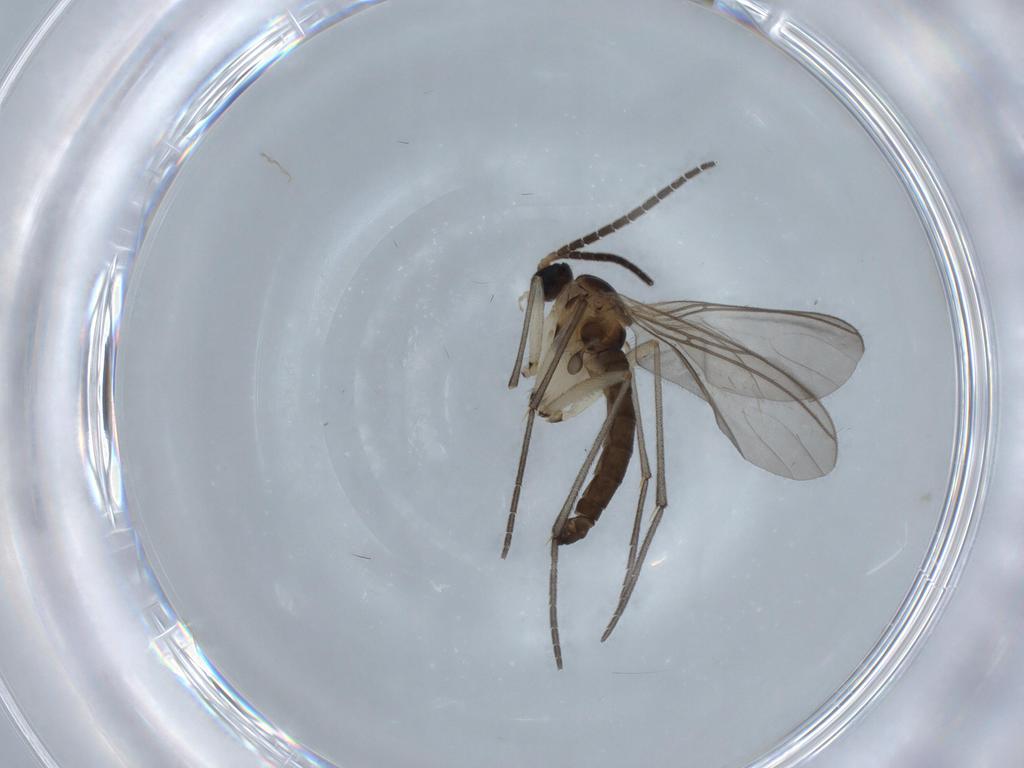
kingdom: Animalia
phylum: Arthropoda
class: Insecta
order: Diptera
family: Sciaridae
